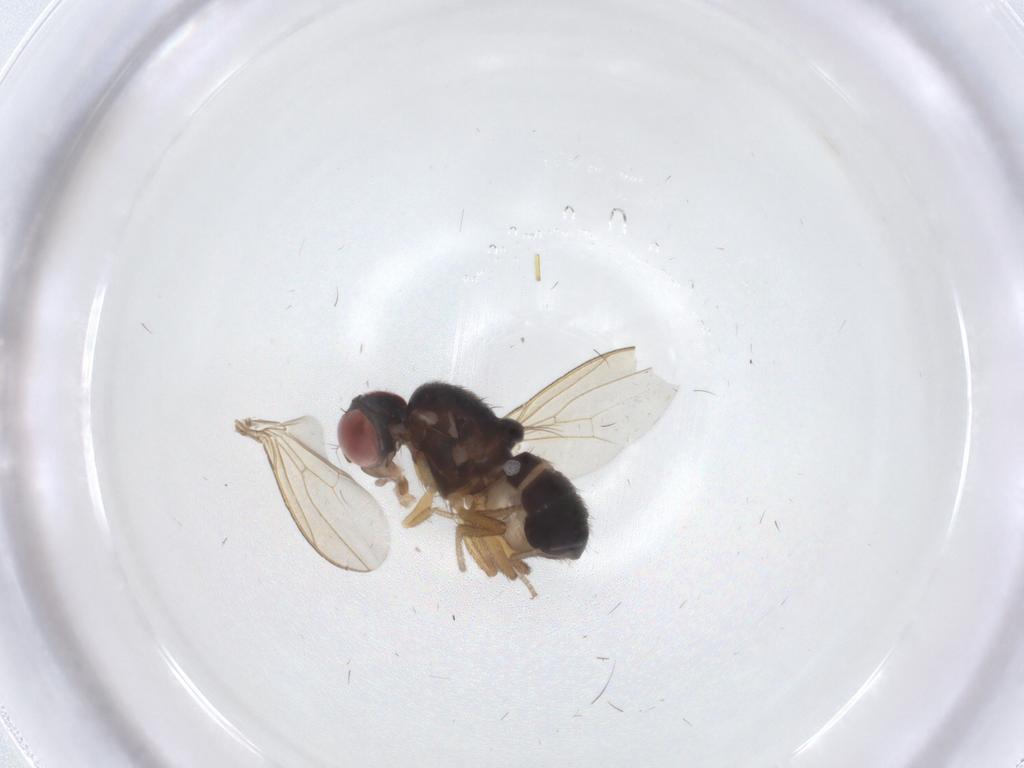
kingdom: Animalia
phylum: Arthropoda
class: Insecta
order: Diptera
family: Drosophilidae
